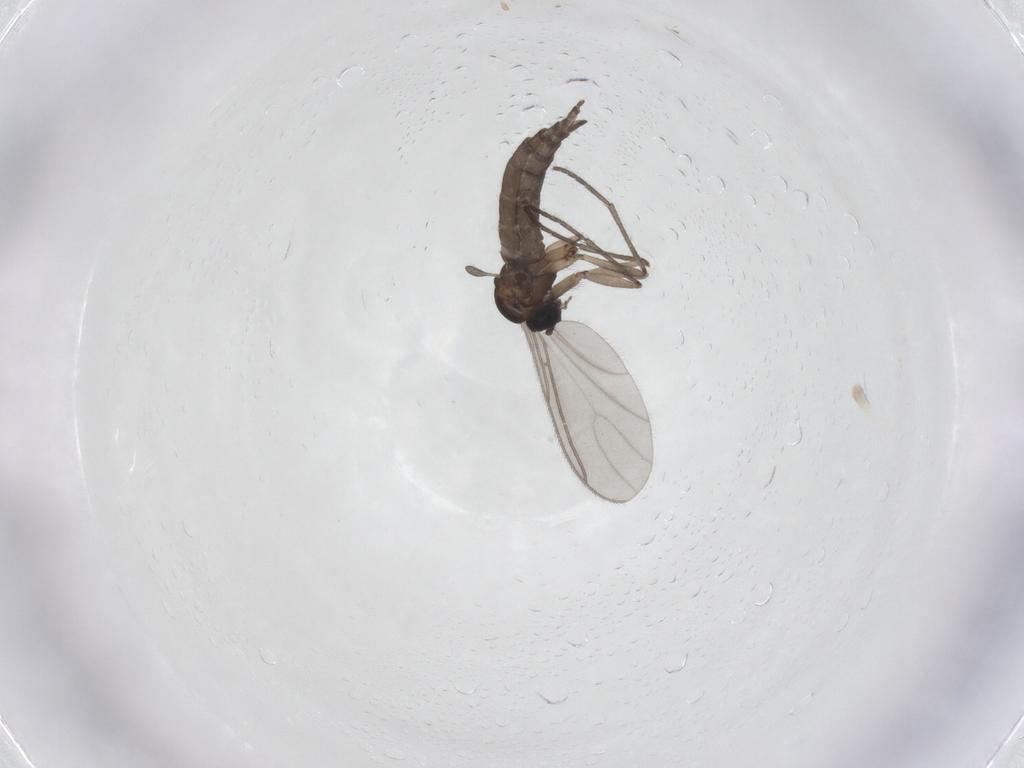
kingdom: Animalia
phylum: Arthropoda
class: Insecta
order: Diptera
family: Sciaridae
